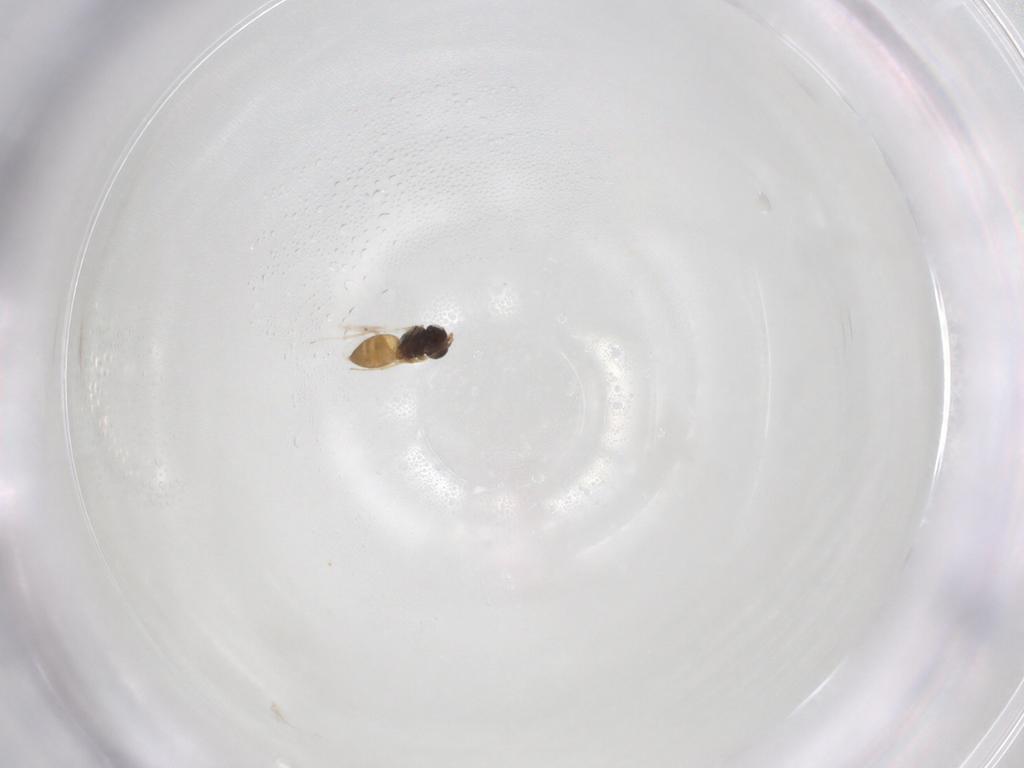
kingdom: Animalia
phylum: Arthropoda
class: Insecta
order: Hymenoptera
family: Scelionidae
